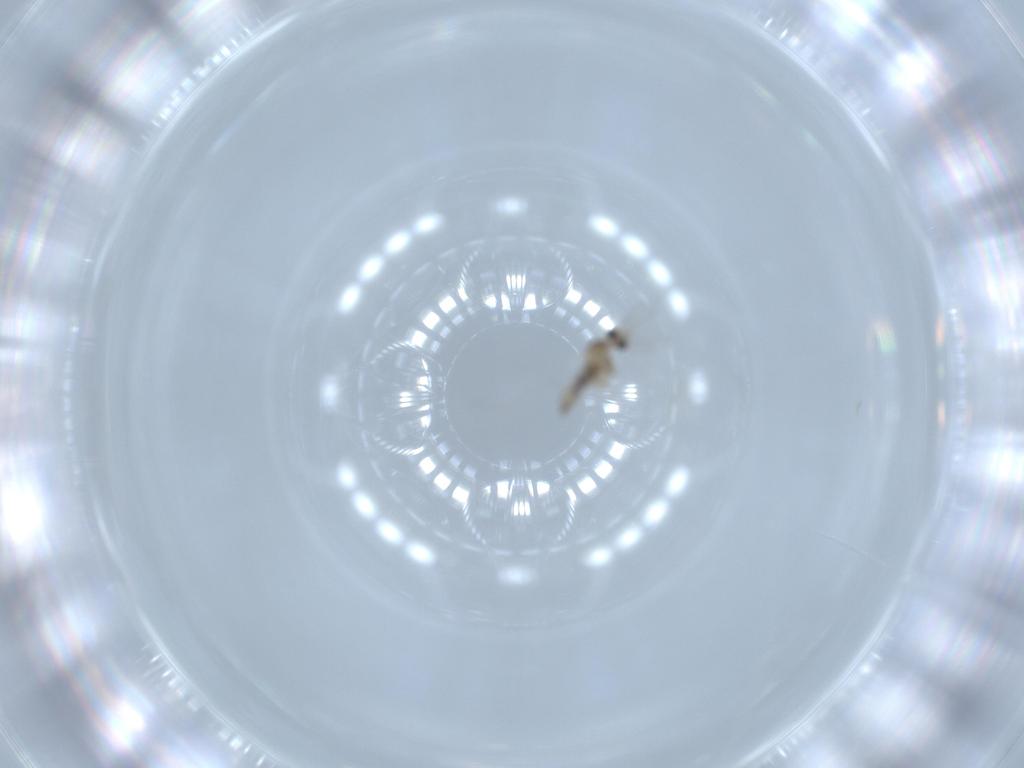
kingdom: Animalia
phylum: Arthropoda
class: Insecta
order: Diptera
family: Cecidomyiidae
